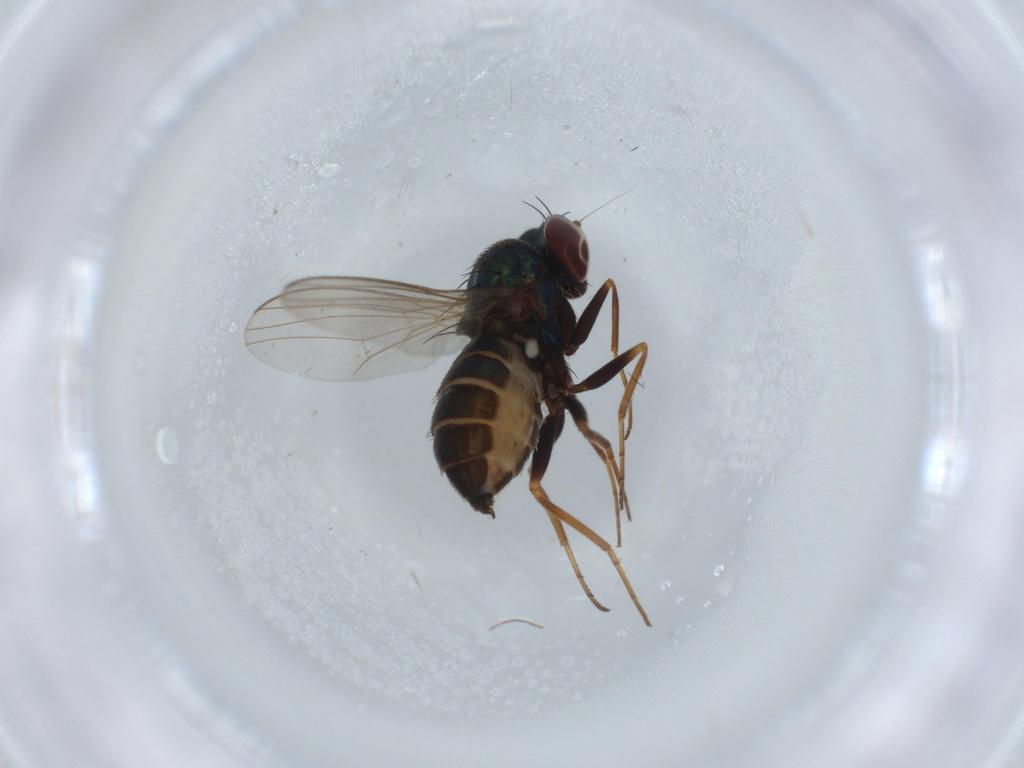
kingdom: Animalia
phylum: Arthropoda
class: Insecta
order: Diptera
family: Dolichopodidae
